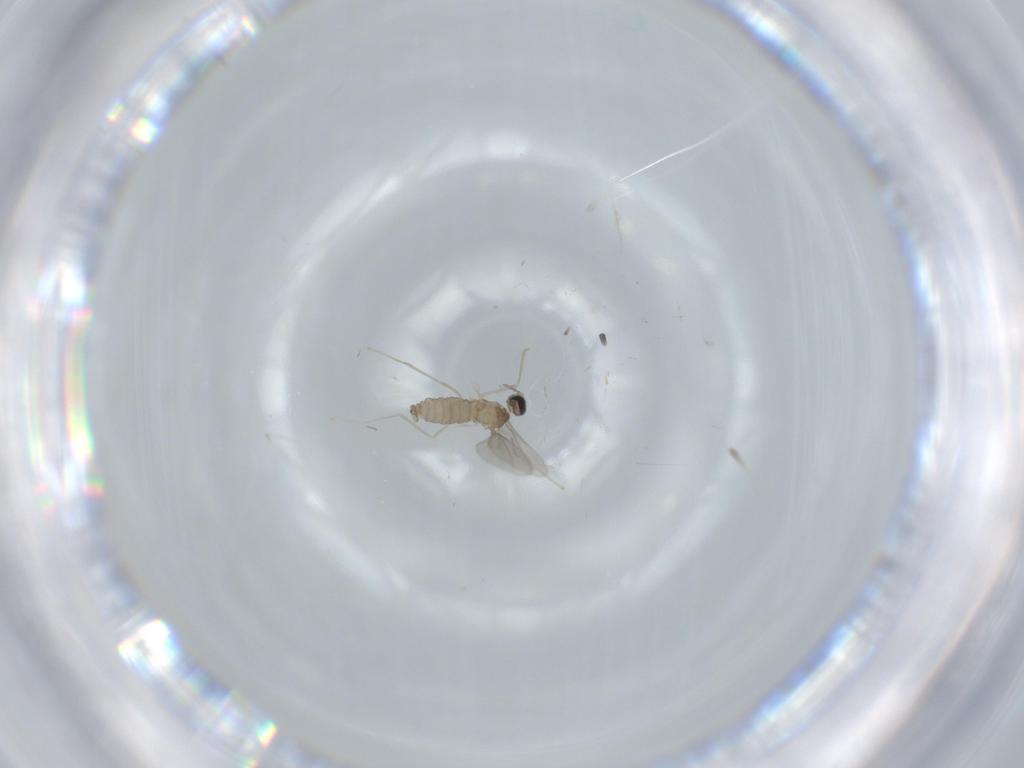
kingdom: Animalia
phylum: Arthropoda
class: Insecta
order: Diptera
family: Cecidomyiidae
